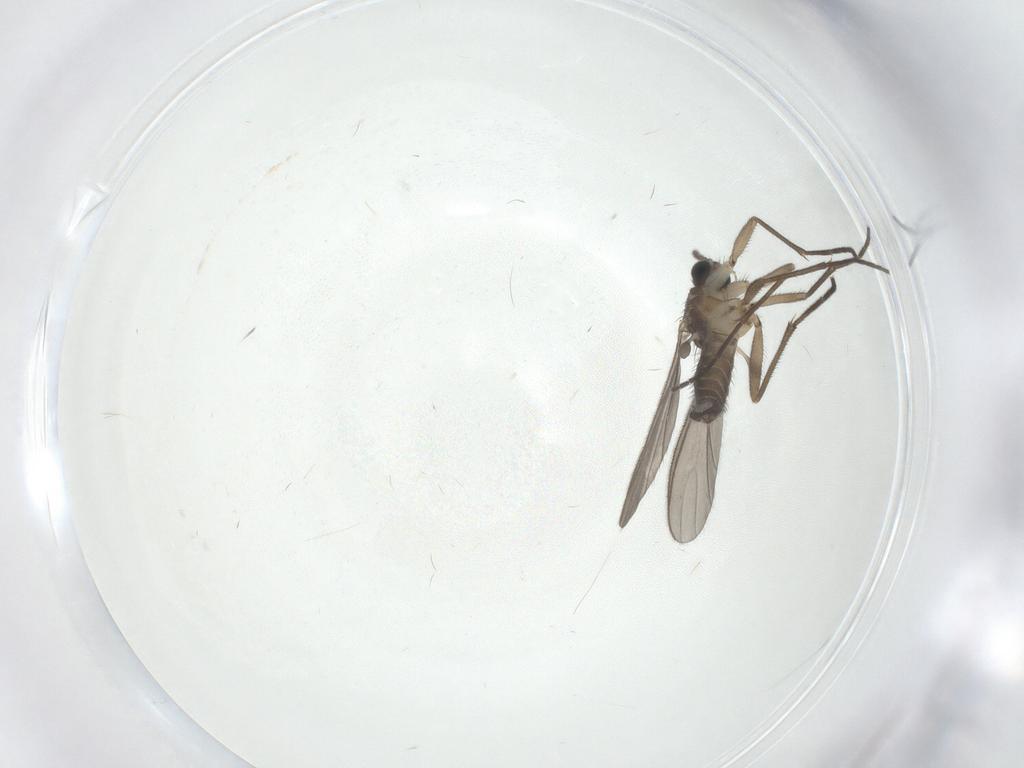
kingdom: Animalia
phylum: Arthropoda
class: Insecta
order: Diptera
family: Sciaridae
